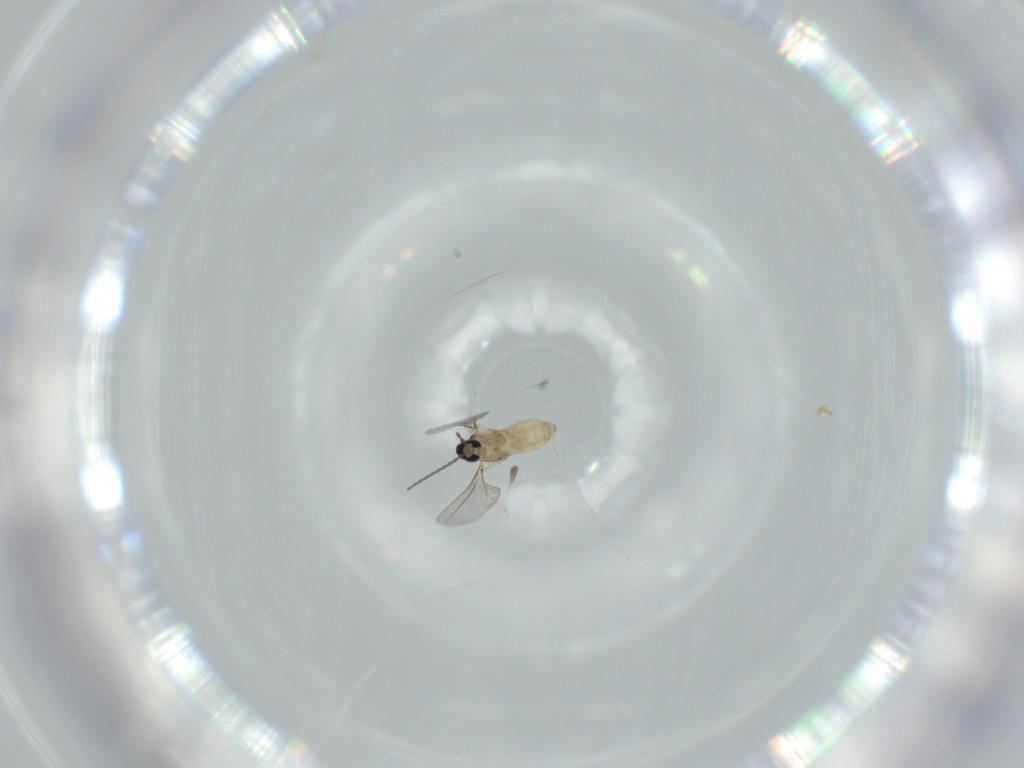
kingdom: Animalia
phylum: Arthropoda
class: Insecta
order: Diptera
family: Cecidomyiidae
